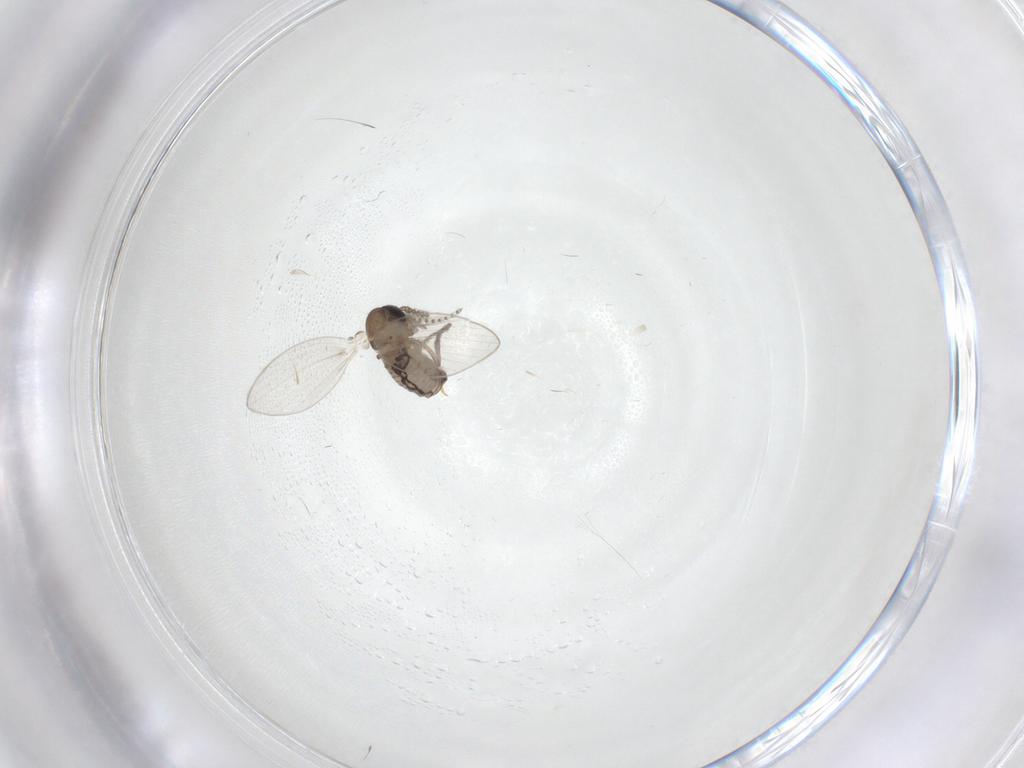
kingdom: Animalia
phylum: Arthropoda
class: Insecta
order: Diptera
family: Psychodidae
